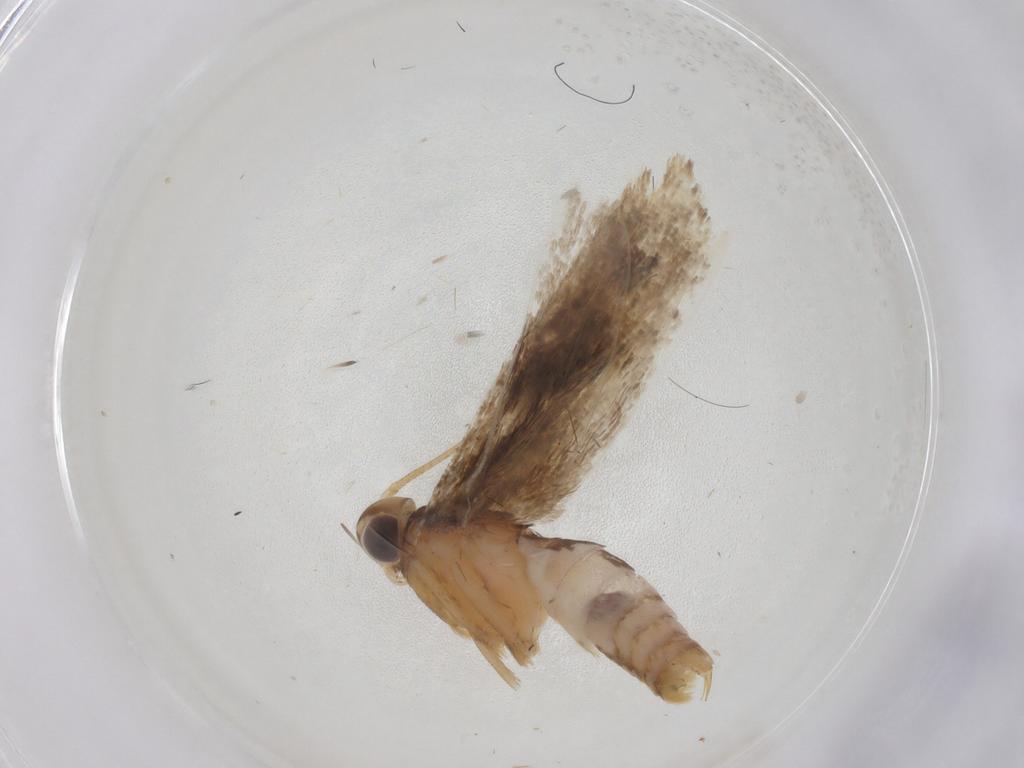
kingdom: Animalia
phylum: Arthropoda
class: Insecta
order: Lepidoptera
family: Gelechiidae
